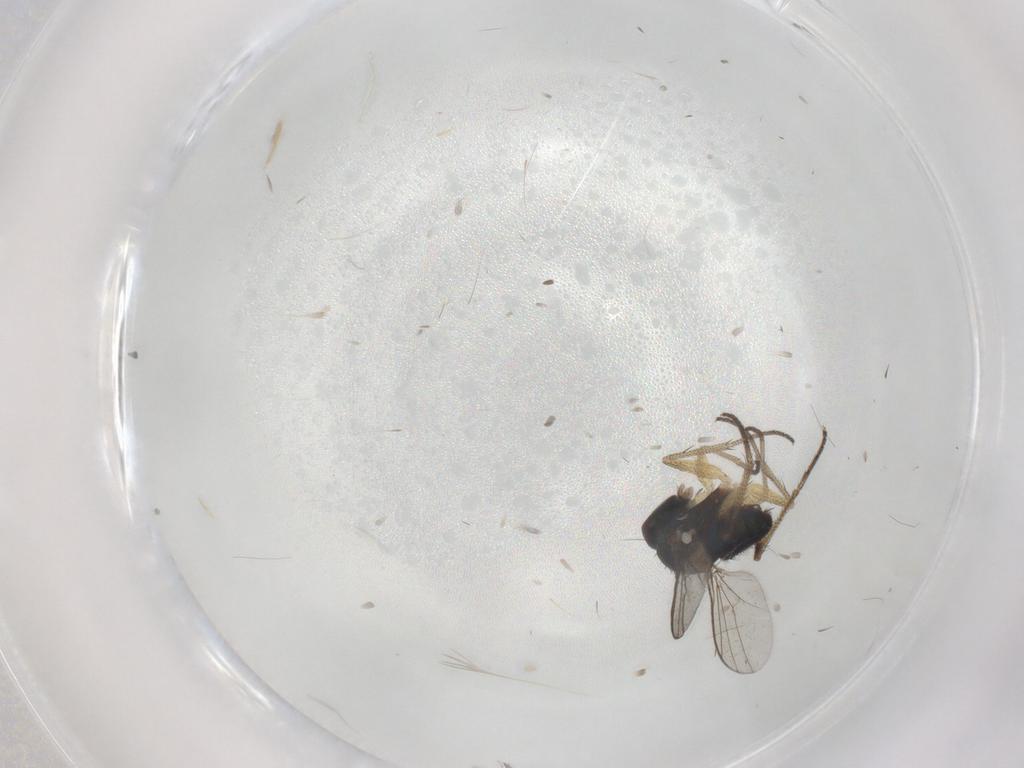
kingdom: Animalia
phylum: Arthropoda
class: Insecta
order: Diptera
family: Dolichopodidae
